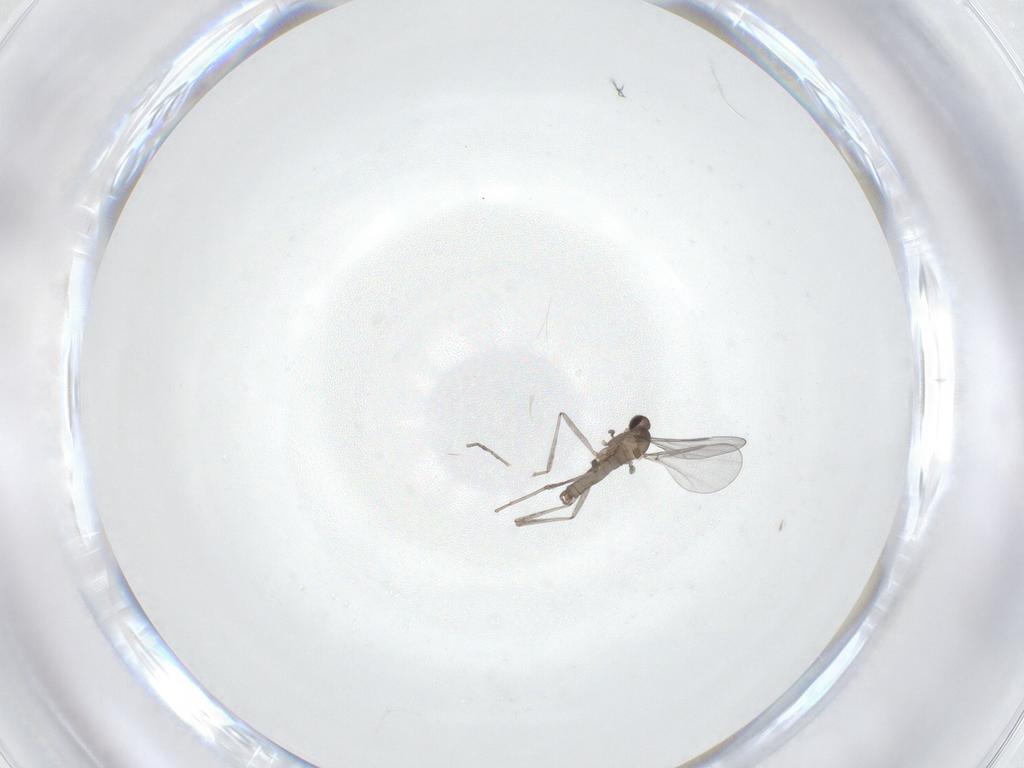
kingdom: Animalia
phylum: Arthropoda
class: Insecta
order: Diptera
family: Cecidomyiidae
